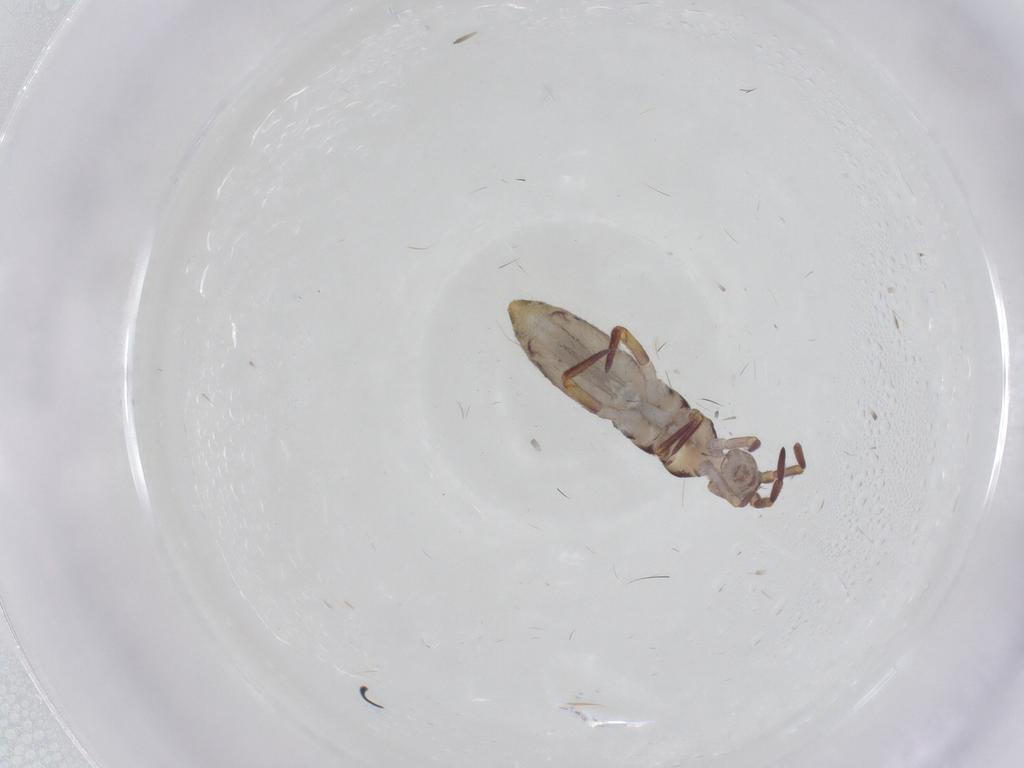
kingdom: Animalia
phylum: Arthropoda
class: Collembola
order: Entomobryomorpha
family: Isotomidae
